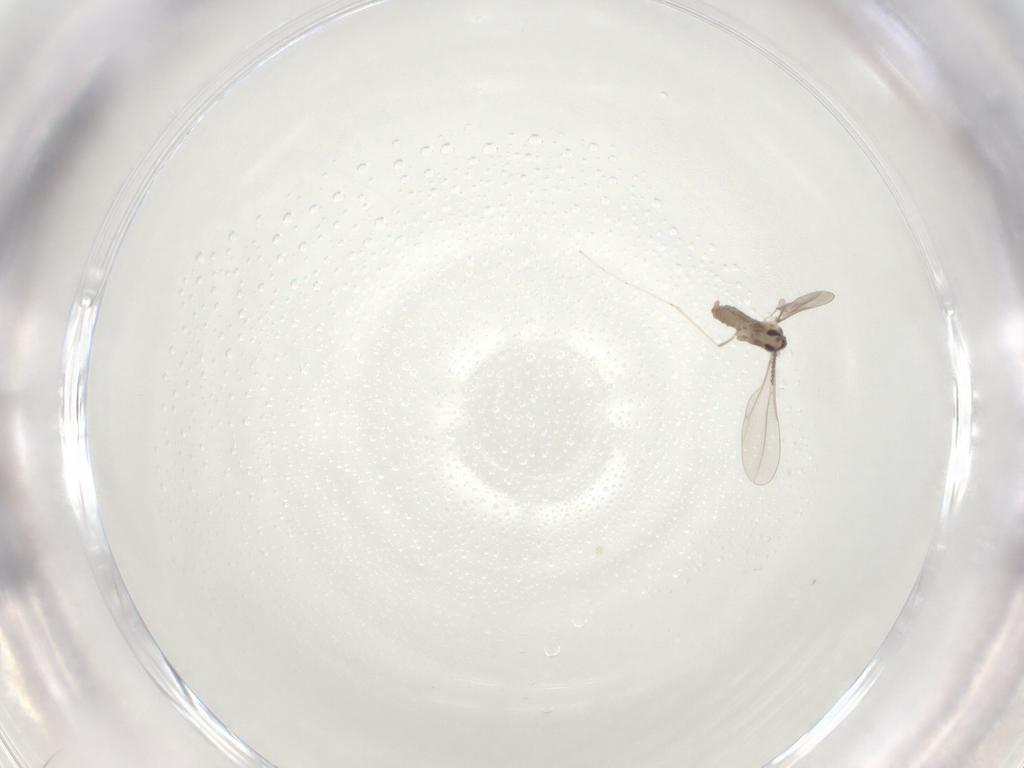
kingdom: Animalia
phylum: Arthropoda
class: Insecta
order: Diptera
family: Cecidomyiidae
